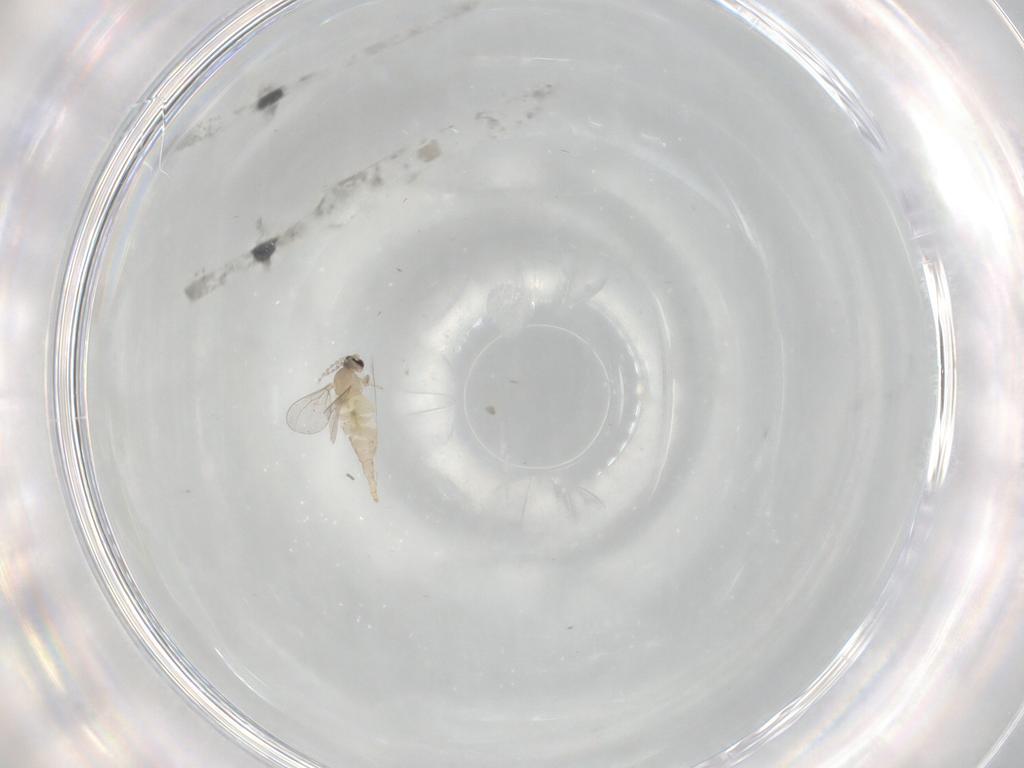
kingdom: Animalia
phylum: Arthropoda
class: Insecta
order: Diptera
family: Cecidomyiidae
